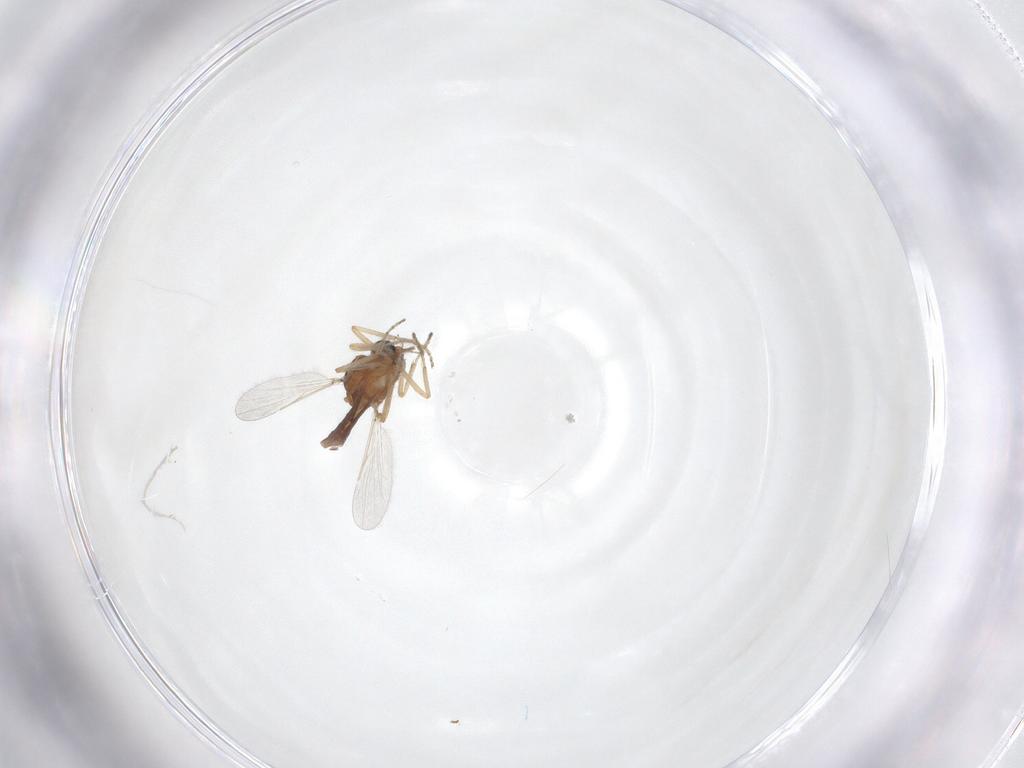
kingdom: Animalia
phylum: Arthropoda
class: Insecta
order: Diptera
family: Ceratopogonidae
